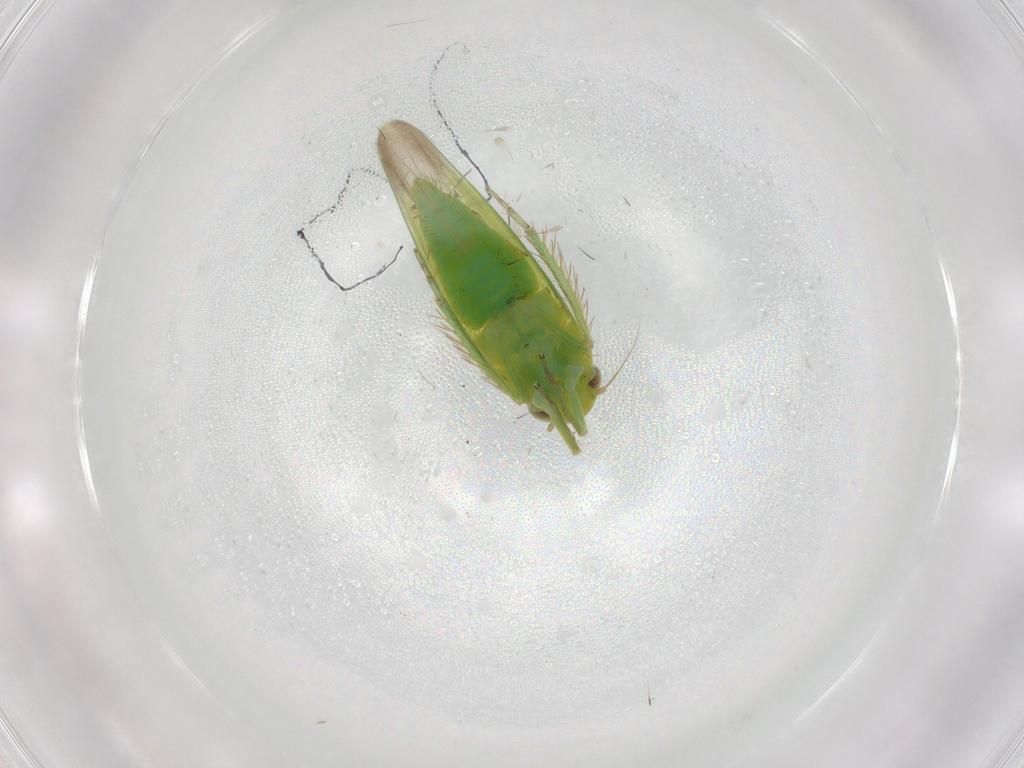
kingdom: Animalia
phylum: Arthropoda
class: Insecta
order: Hemiptera
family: Cicadellidae
